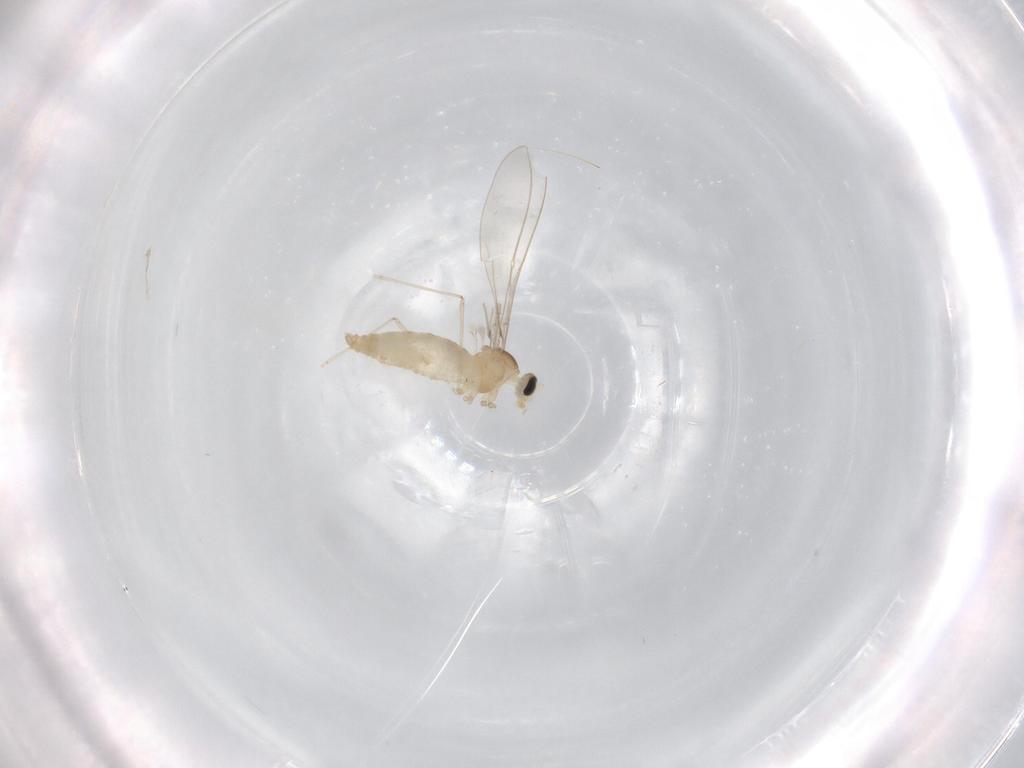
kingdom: Animalia
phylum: Arthropoda
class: Insecta
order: Diptera
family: Cecidomyiidae
